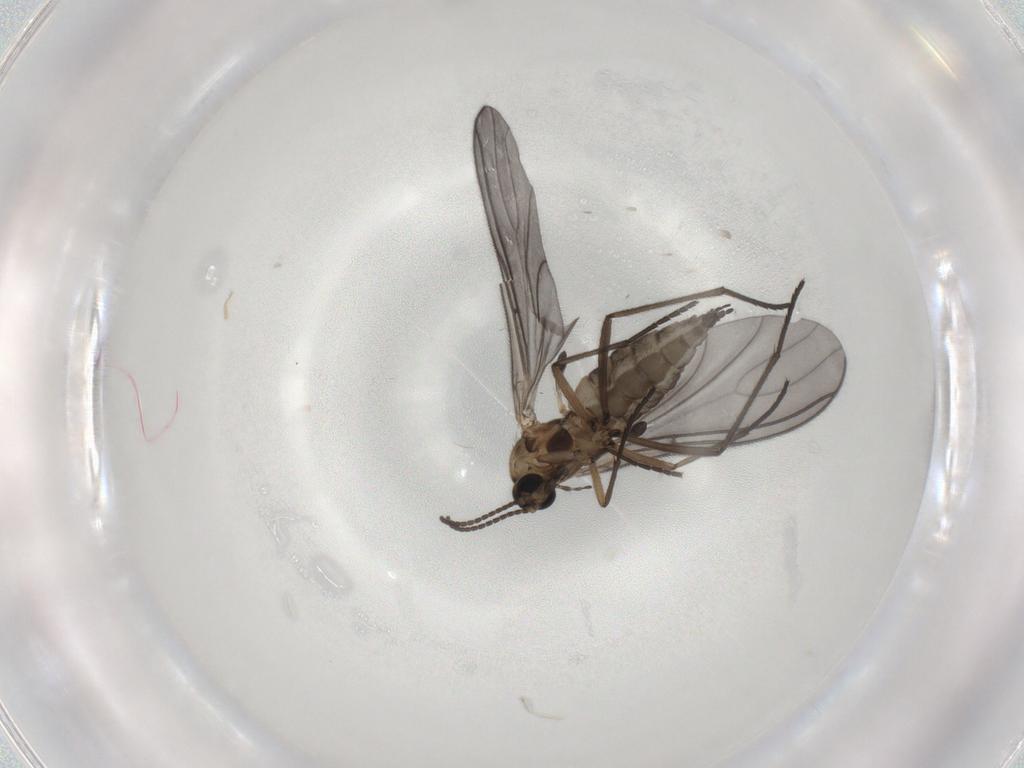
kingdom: Animalia
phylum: Arthropoda
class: Insecta
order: Diptera
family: Sciaridae
